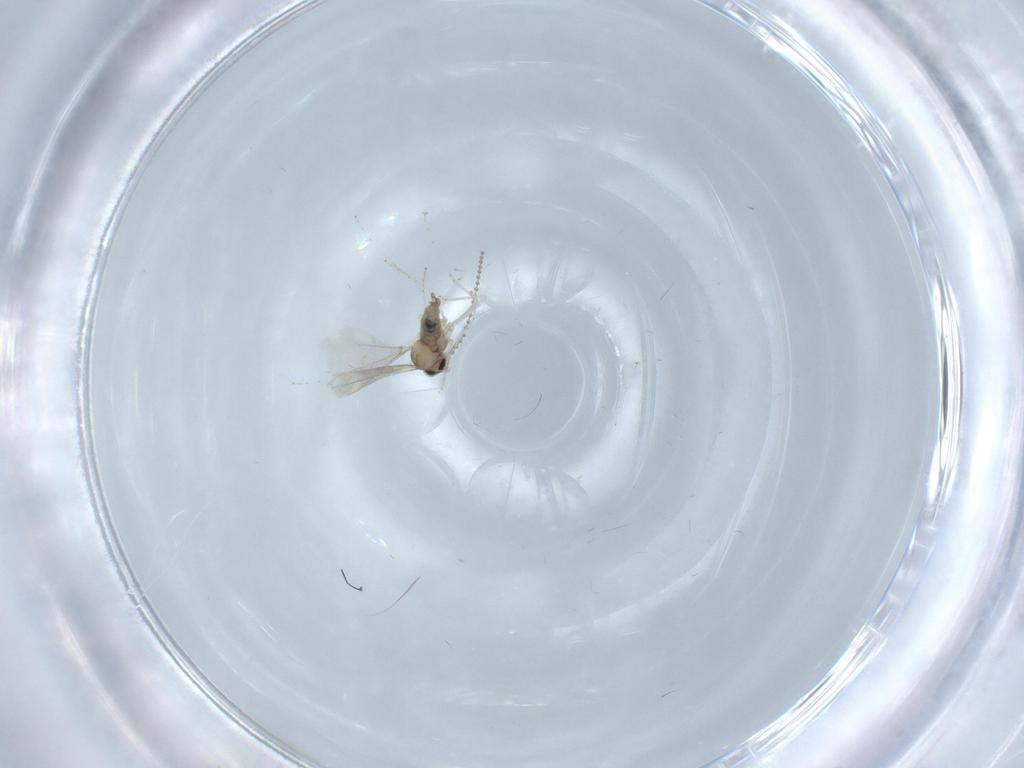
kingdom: Animalia
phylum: Arthropoda
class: Insecta
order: Diptera
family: Cecidomyiidae
